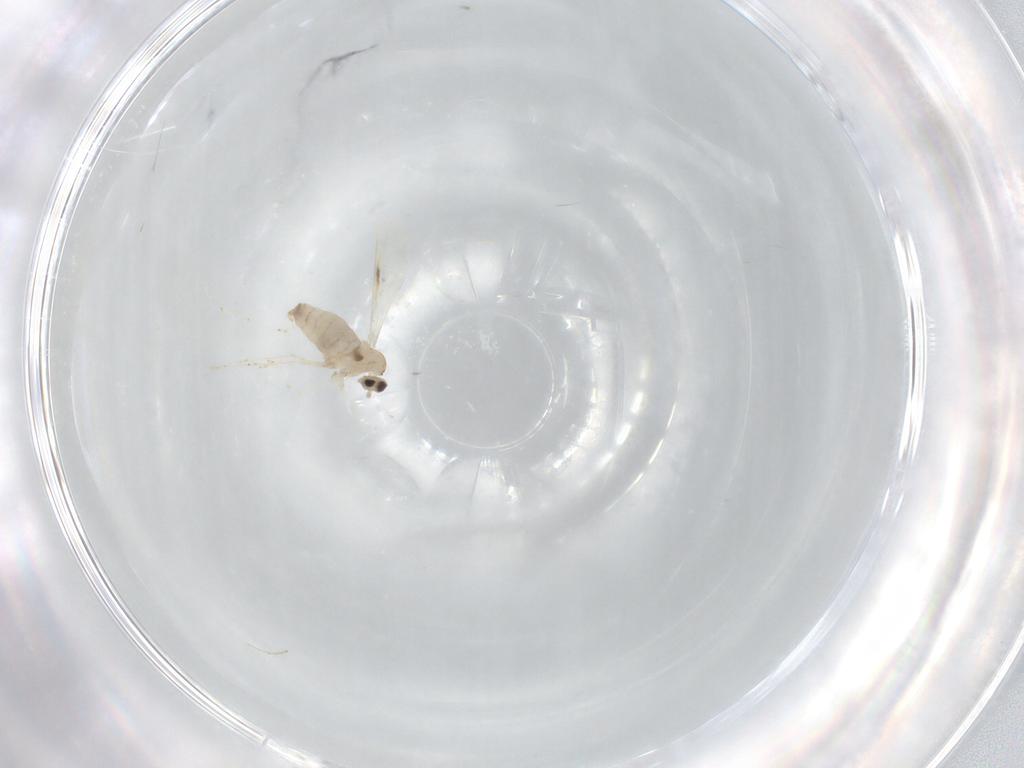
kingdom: Animalia
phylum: Arthropoda
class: Insecta
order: Diptera
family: Cecidomyiidae
